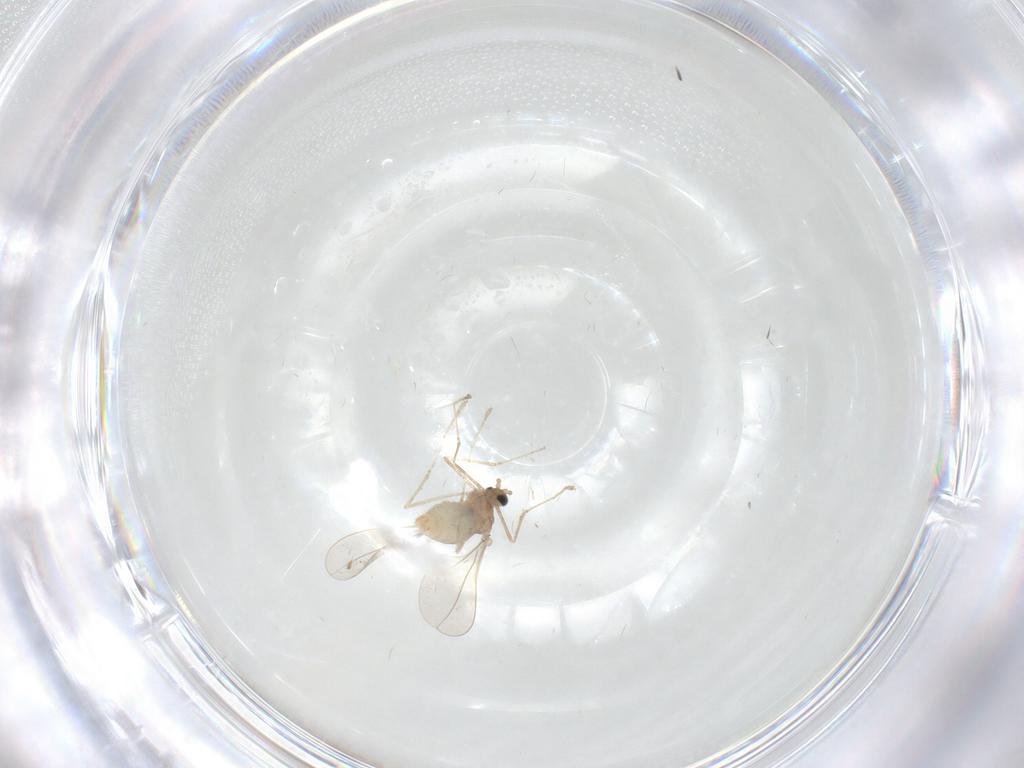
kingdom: Animalia
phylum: Arthropoda
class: Insecta
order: Diptera
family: Cecidomyiidae
